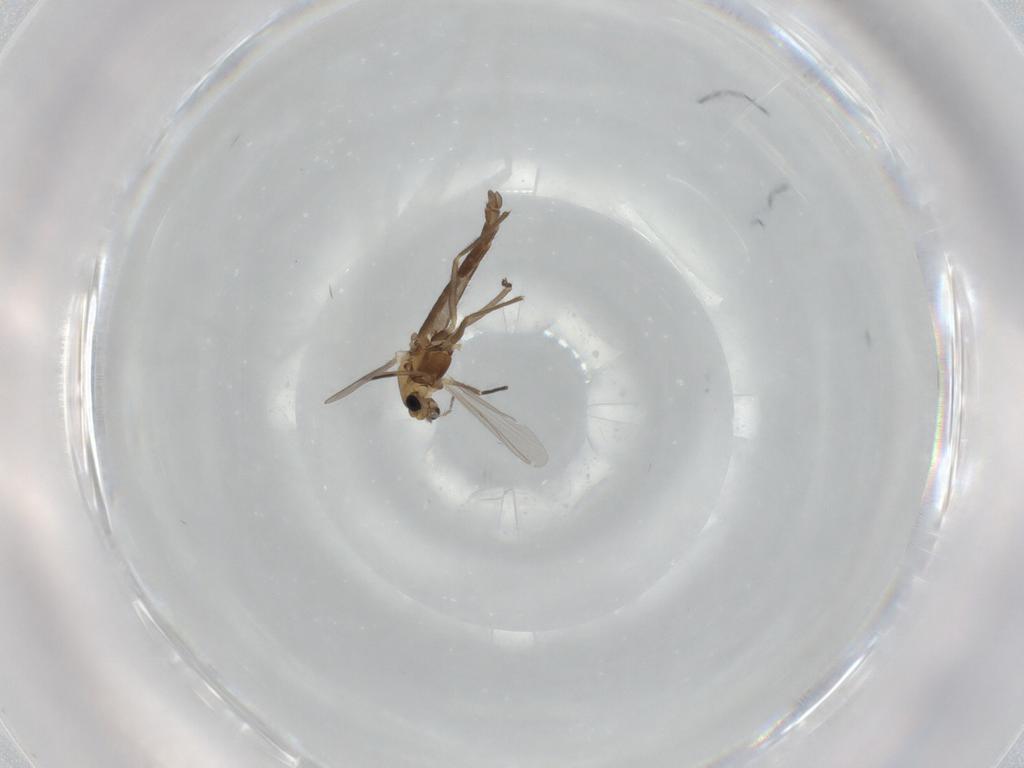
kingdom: Animalia
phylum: Arthropoda
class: Insecta
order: Diptera
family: Chironomidae
